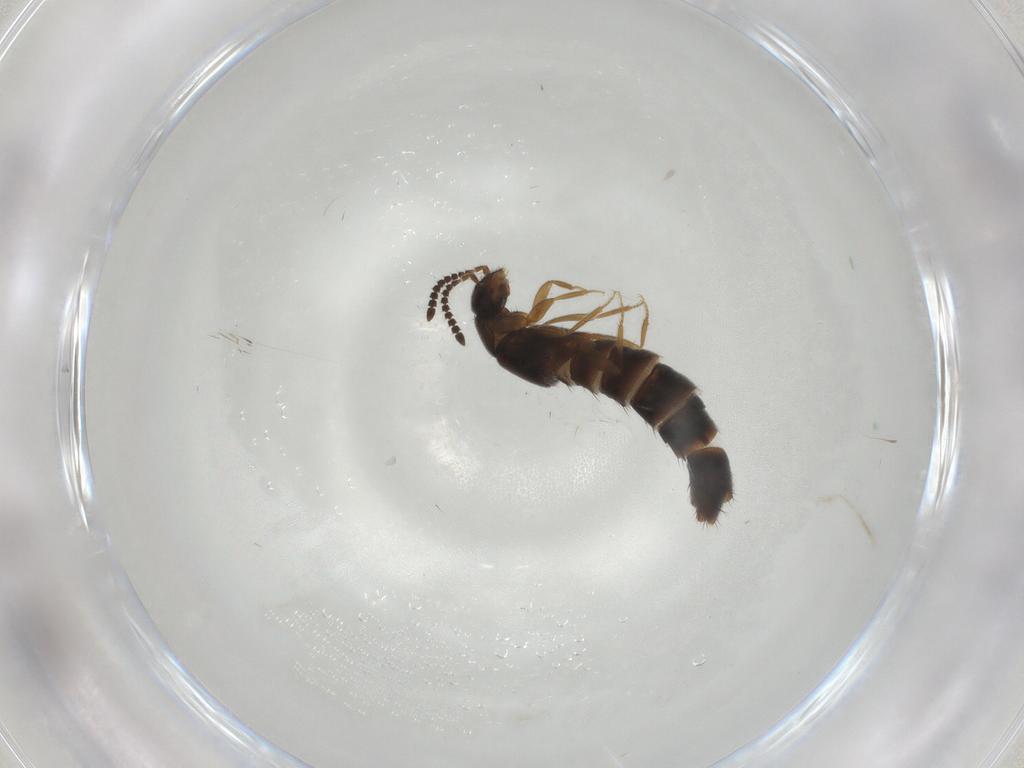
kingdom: Animalia
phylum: Arthropoda
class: Insecta
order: Coleoptera
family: Staphylinidae
